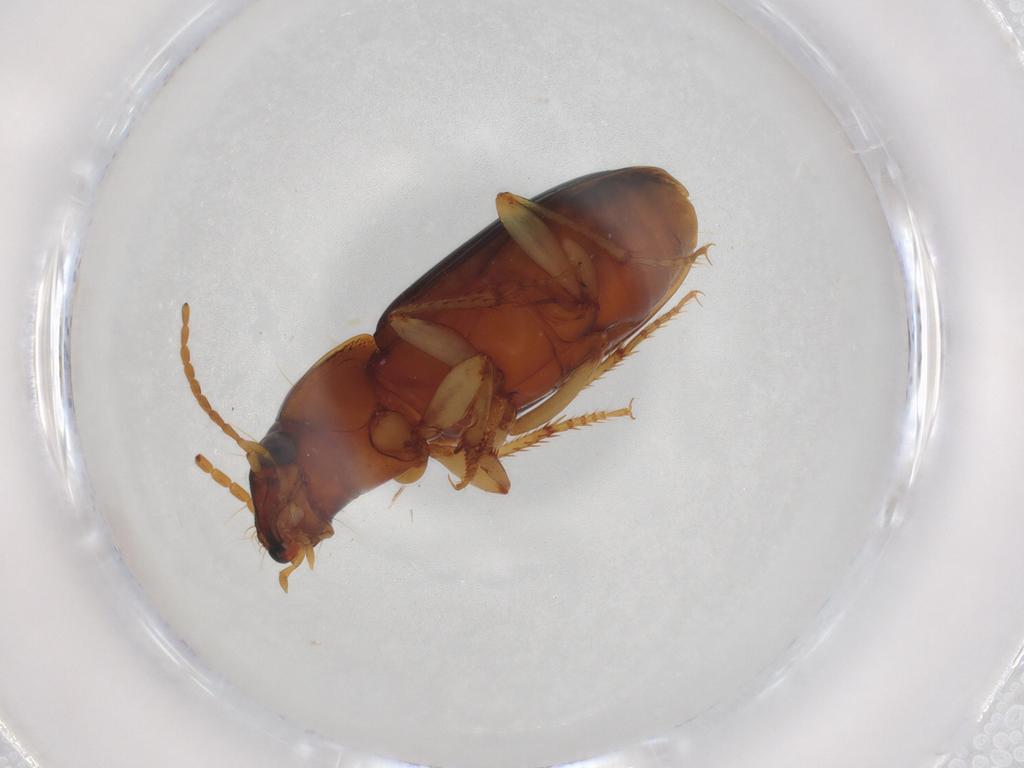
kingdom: Animalia
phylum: Arthropoda
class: Insecta
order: Coleoptera
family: Carabidae
